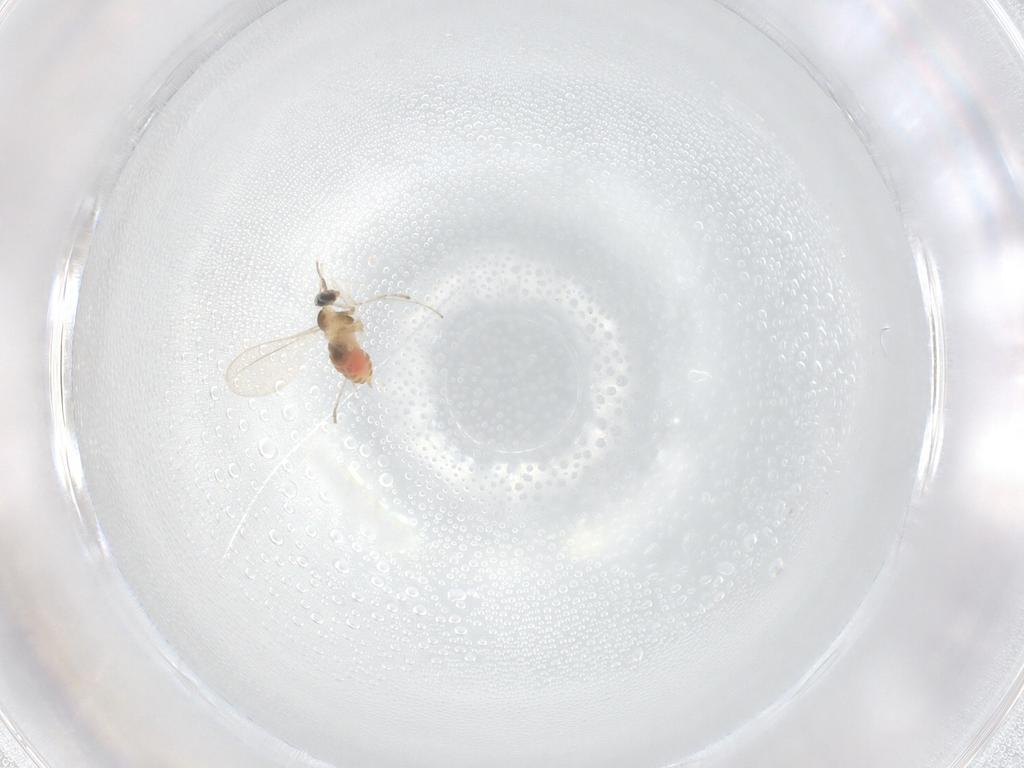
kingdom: Animalia
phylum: Arthropoda
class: Insecta
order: Diptera
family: Cecidomyiidae
